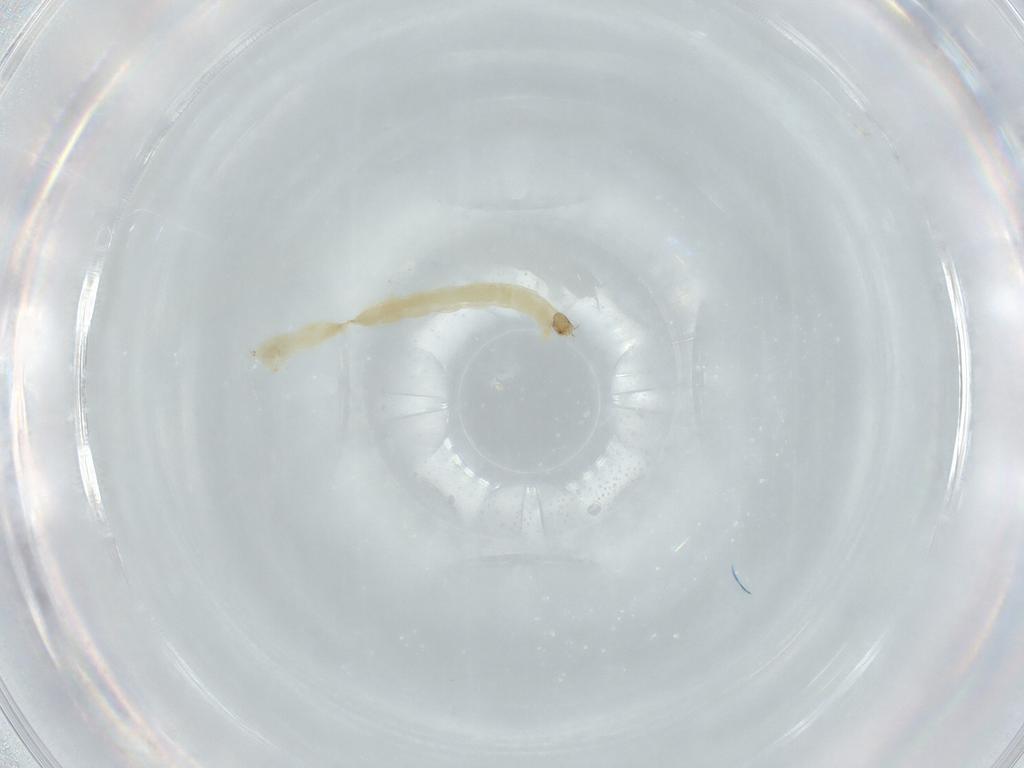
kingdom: Animalia
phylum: Arthropoda
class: Insecta
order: Diptera
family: Chironomidae
